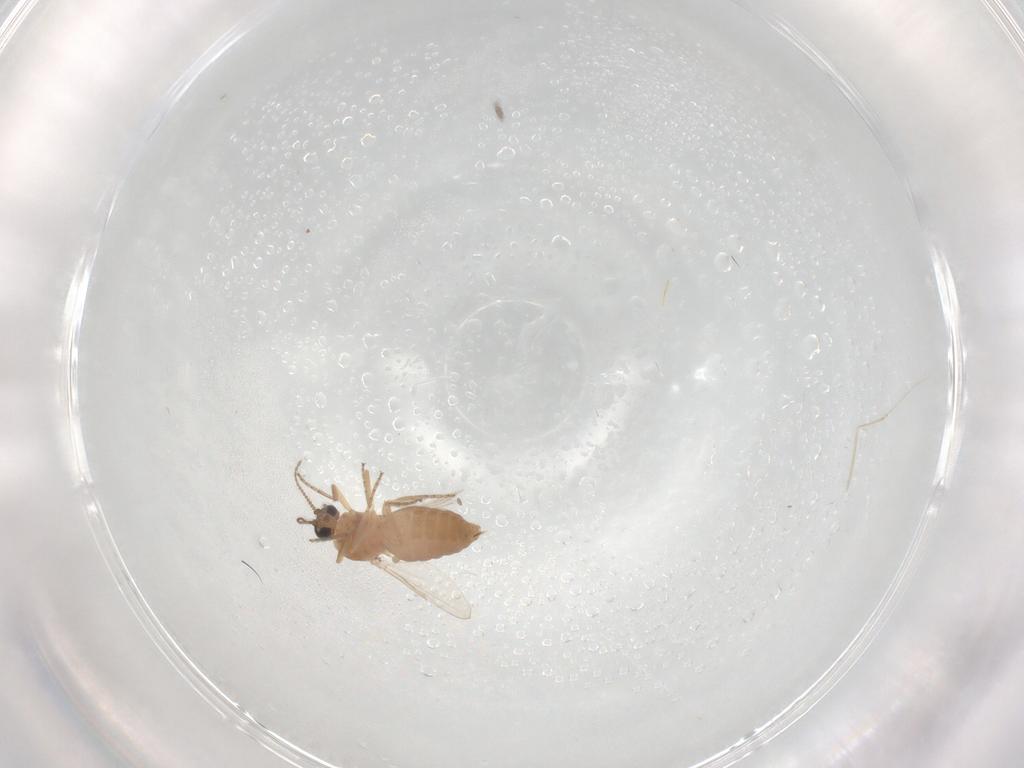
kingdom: Animalia
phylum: Arthropoda
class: Insecta
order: Diptera
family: Ceratopogonidae
